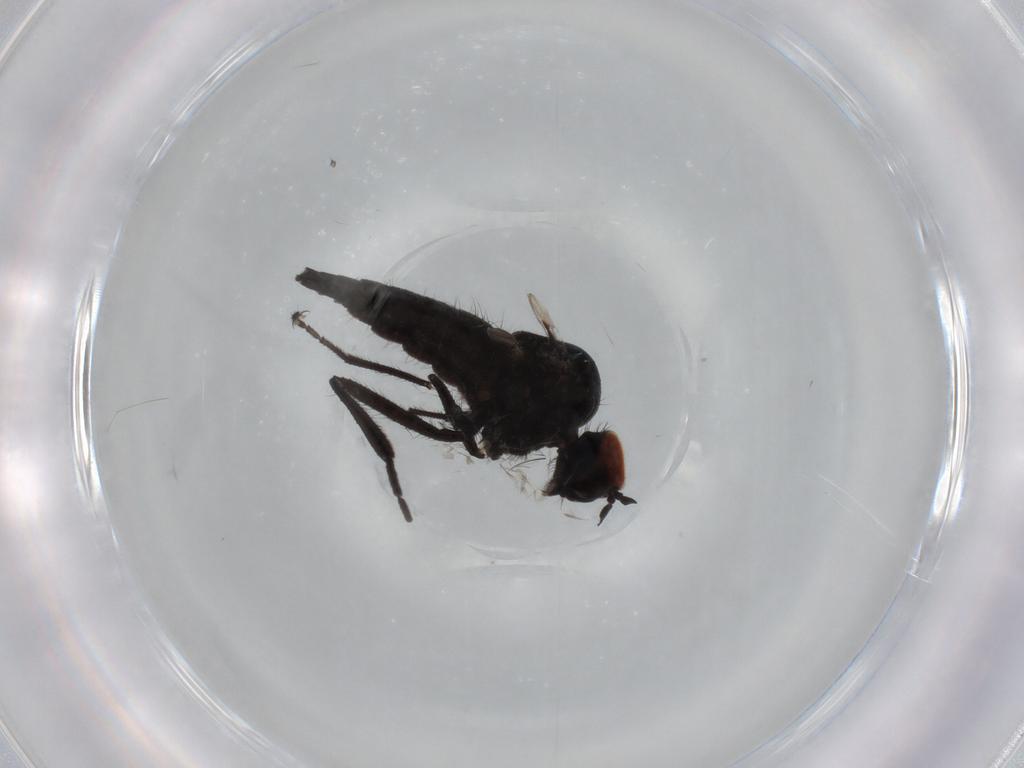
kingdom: Animalia
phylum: Arthropoda
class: Insecta
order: Diptera
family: Hybotidae
